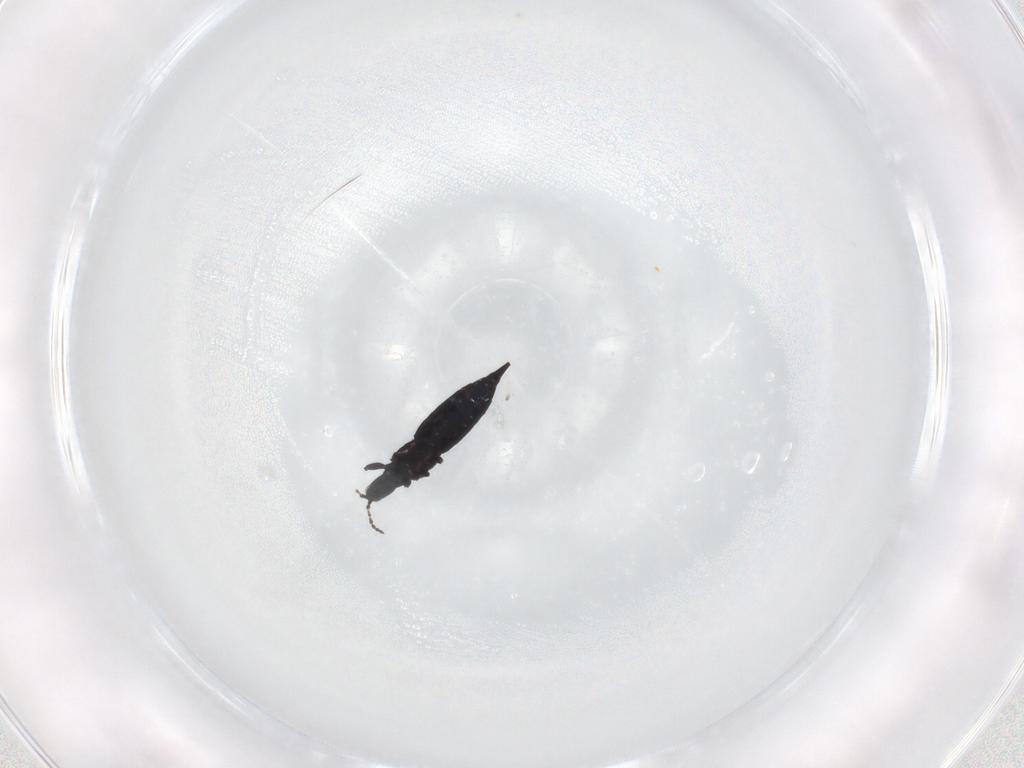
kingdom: Animalia
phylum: Arthropoda
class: Insecta
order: Thysanoptera
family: Phlaeothripidae
